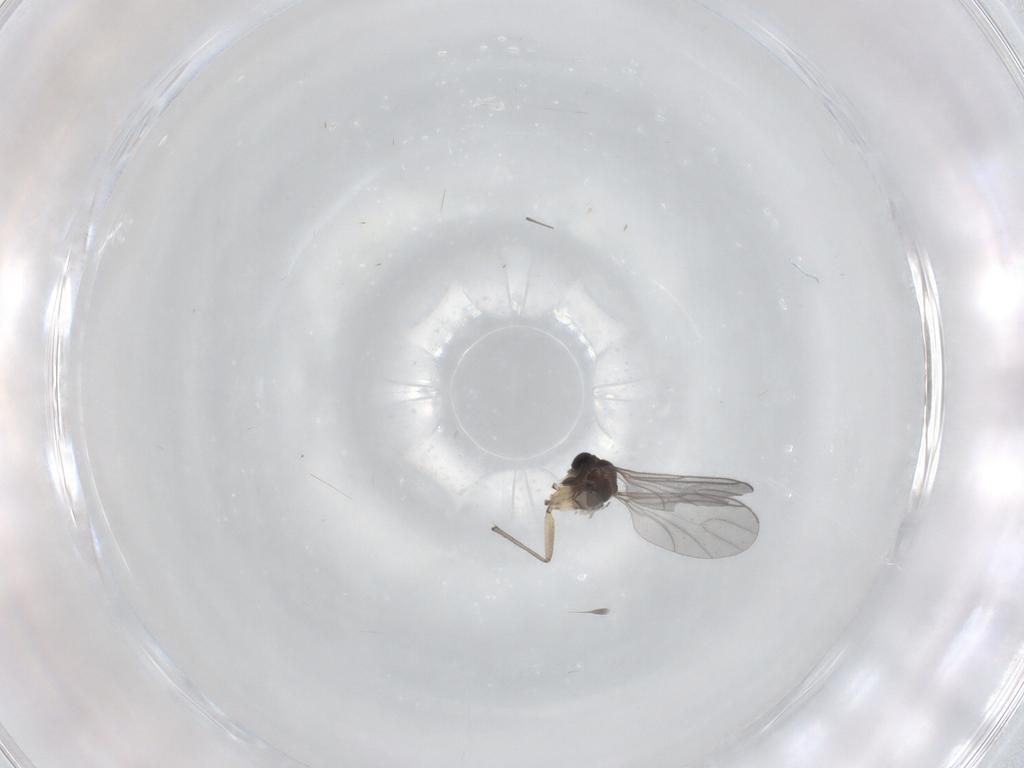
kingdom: Animalia
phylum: Arthropoda
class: Insecta
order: Diptera
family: Sciaridae
